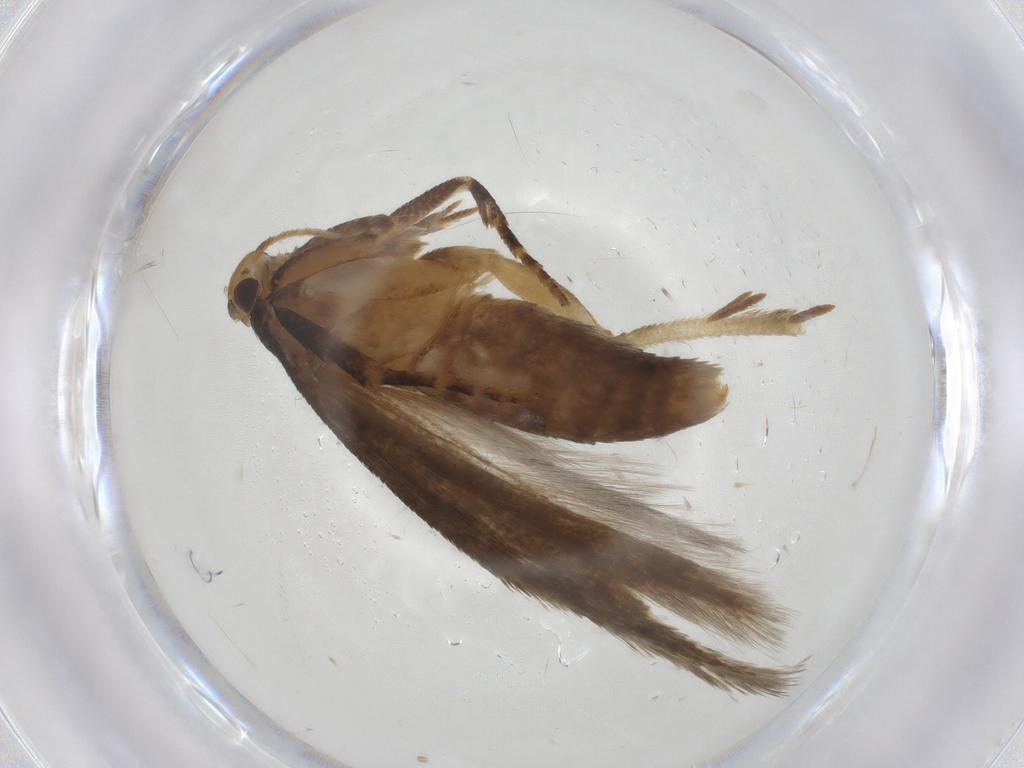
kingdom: Animalia
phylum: Arthropoda
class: Insecta
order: Lepidoptera
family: Gelechiidae
